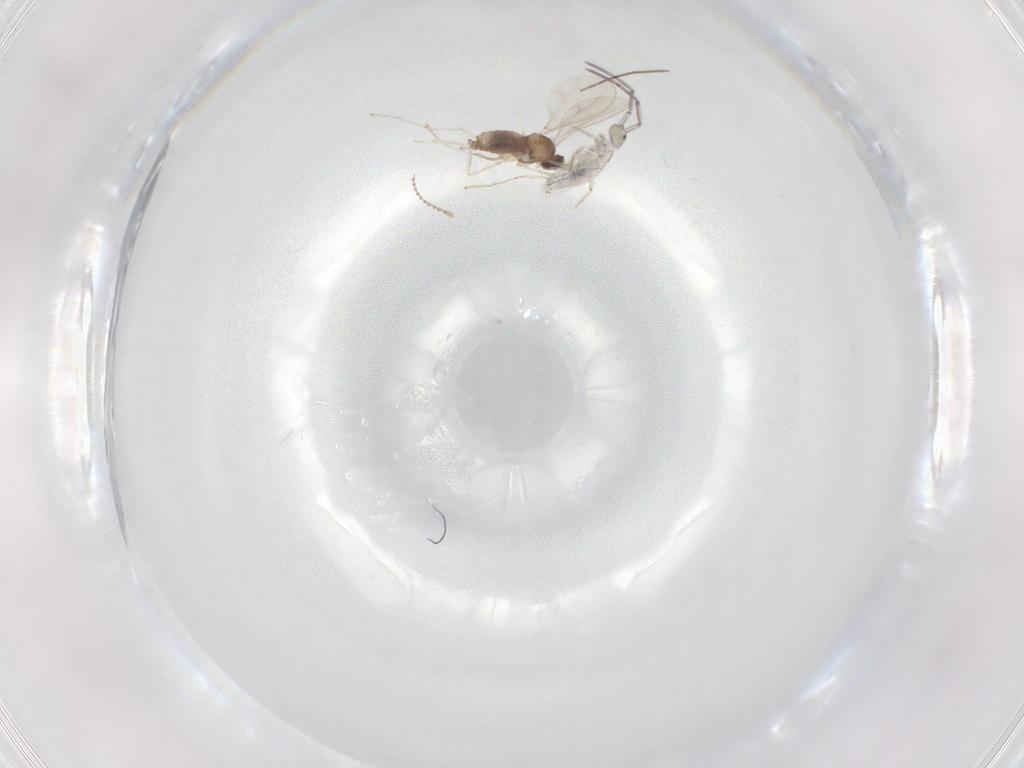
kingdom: Animalia
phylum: Arthropoda
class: Insecta
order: Diptera
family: Cecidomyiidae
